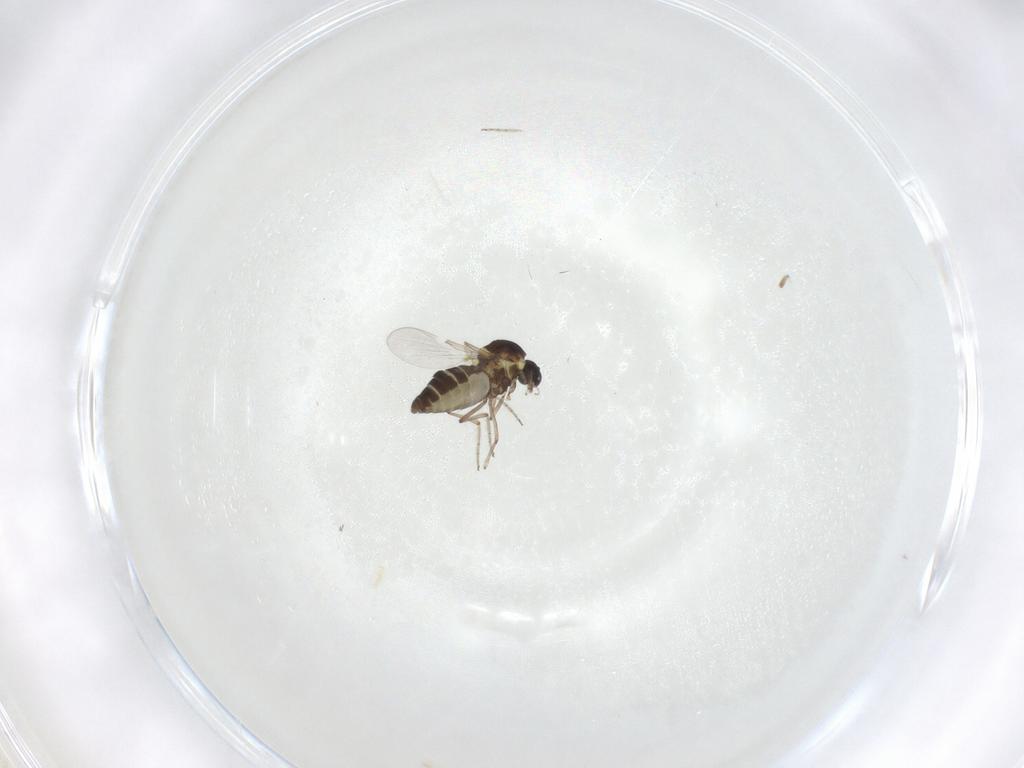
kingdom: Animalia
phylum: Arthropoda
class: Insecta
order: Diptera
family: Ceratopogonidae
